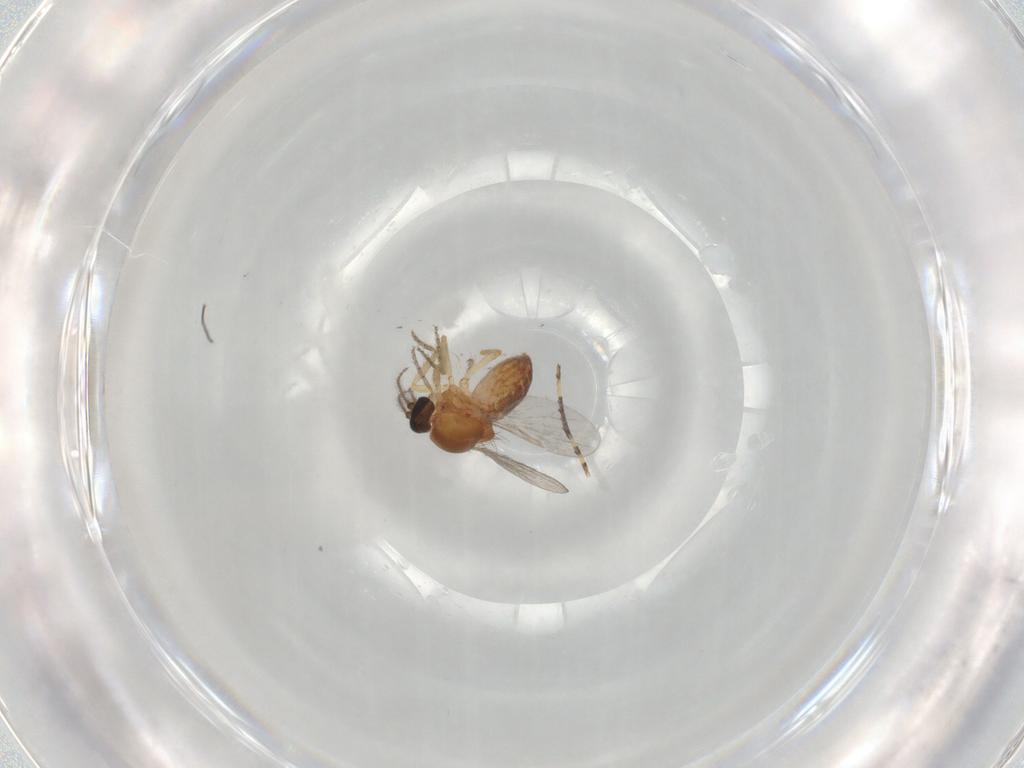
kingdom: Animalia
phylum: Arthropoda
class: Insecta
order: Diptera
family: Ceratopogonidae
